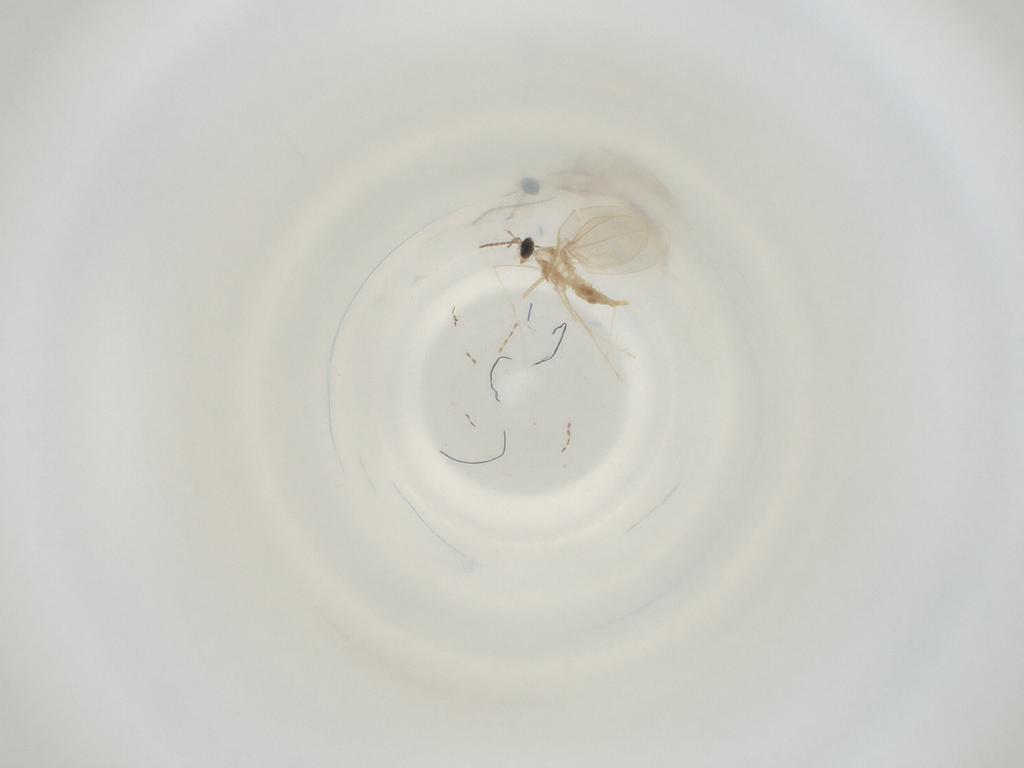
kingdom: Animalia
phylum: Arthropoda
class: Insecta
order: Diptera
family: Cecidomyiidae
